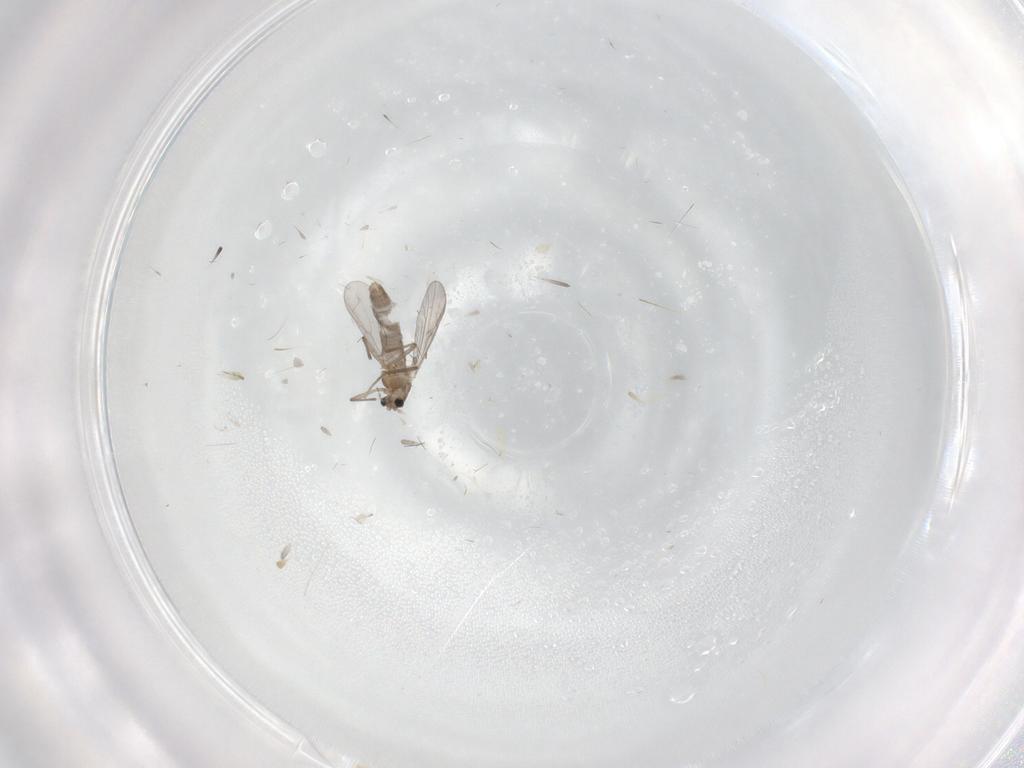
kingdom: Animalia
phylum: Arthropoda
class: Insecta
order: Diptera
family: Chironomidae
